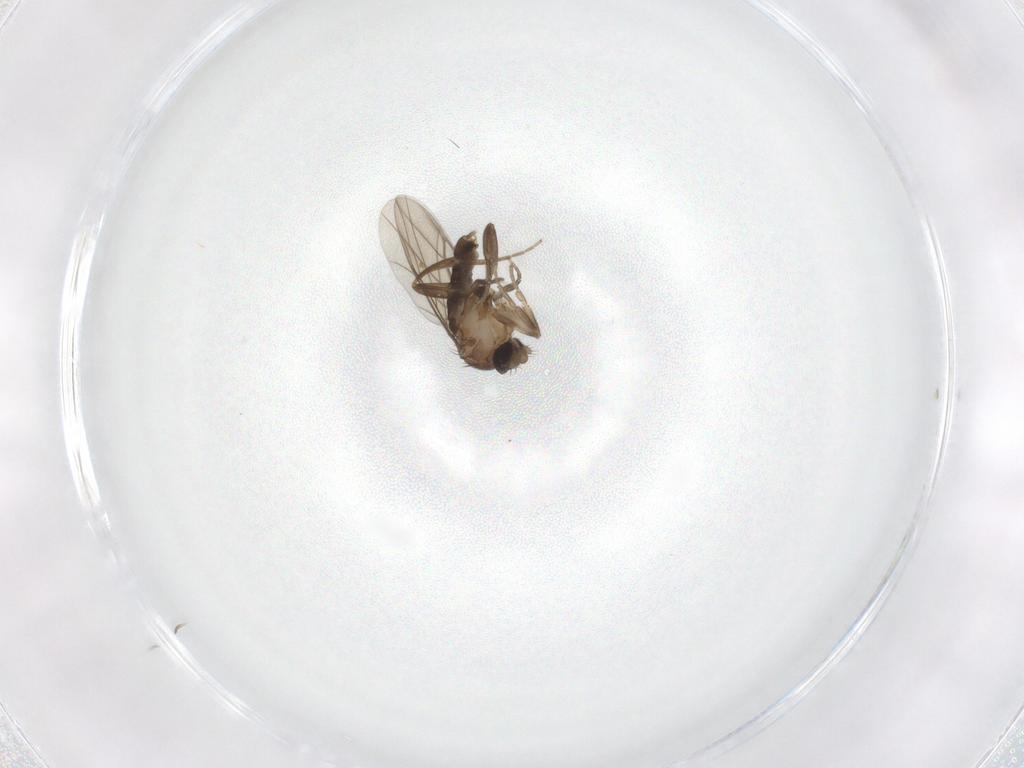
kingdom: Animalia
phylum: Arthropoda
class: Insecta
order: Diptera
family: Phoridae
